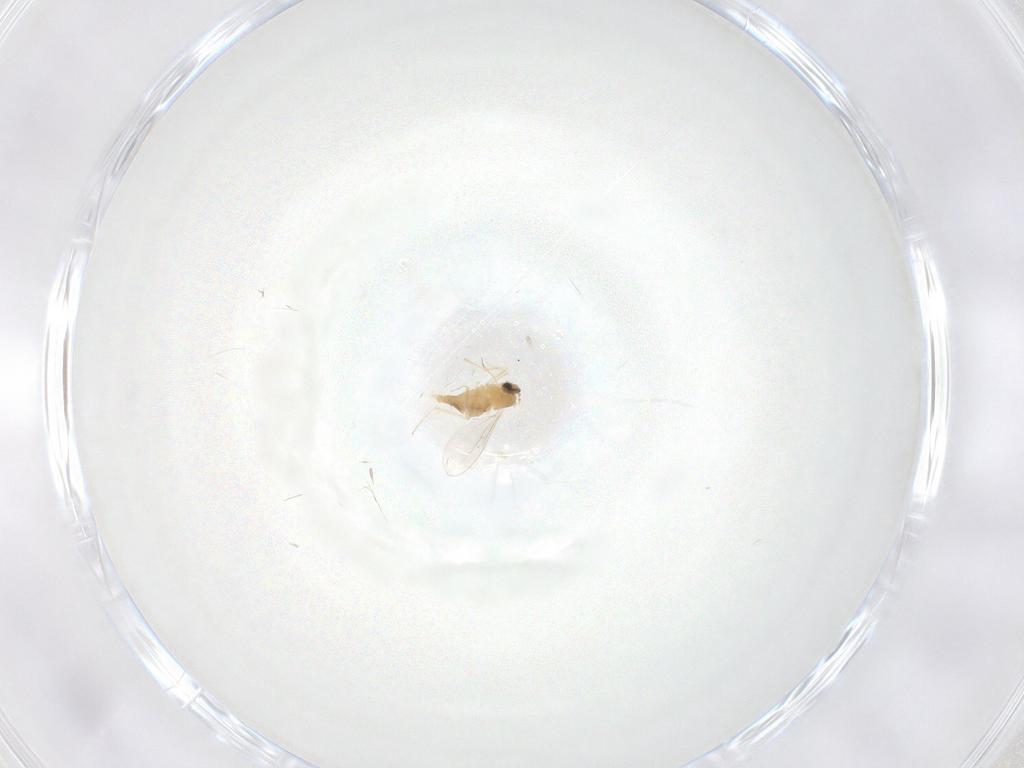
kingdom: Animalia
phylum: Arthropoda
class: Insecta
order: Diptera
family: Cecidomyiidae
